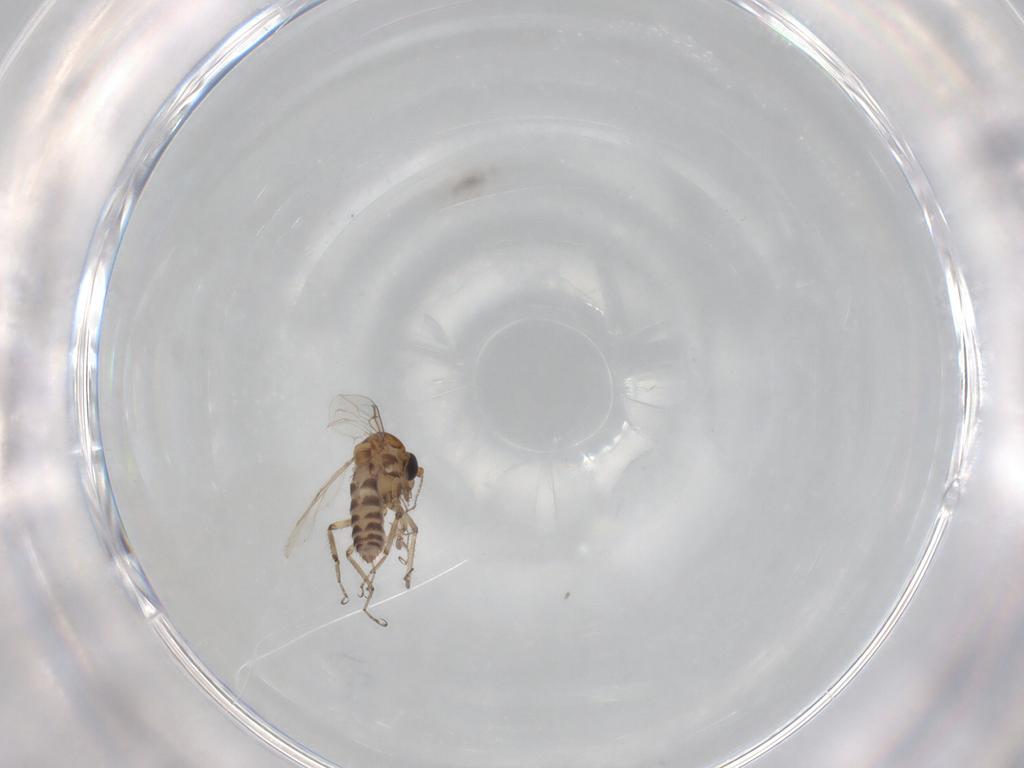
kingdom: Animalia
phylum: Arthropoda
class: Insecta
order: Diptera
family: Ceratopogonidae
